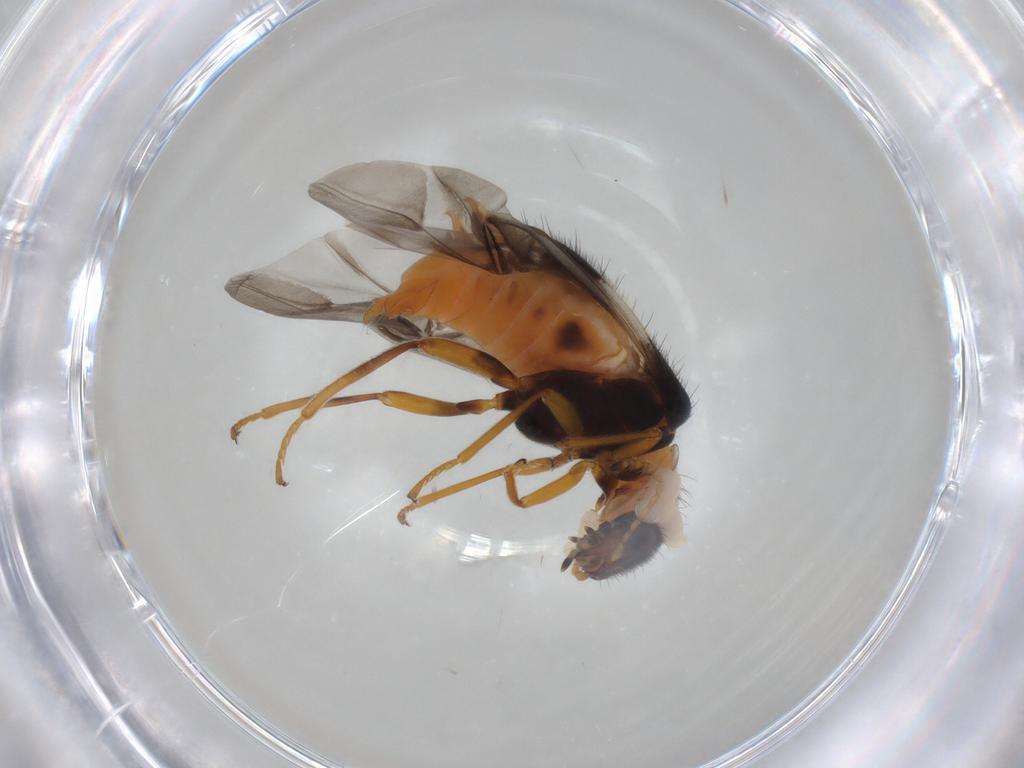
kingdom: Animalia
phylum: Arthropoda
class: Insecta
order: Coleoptera
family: Melyridae
